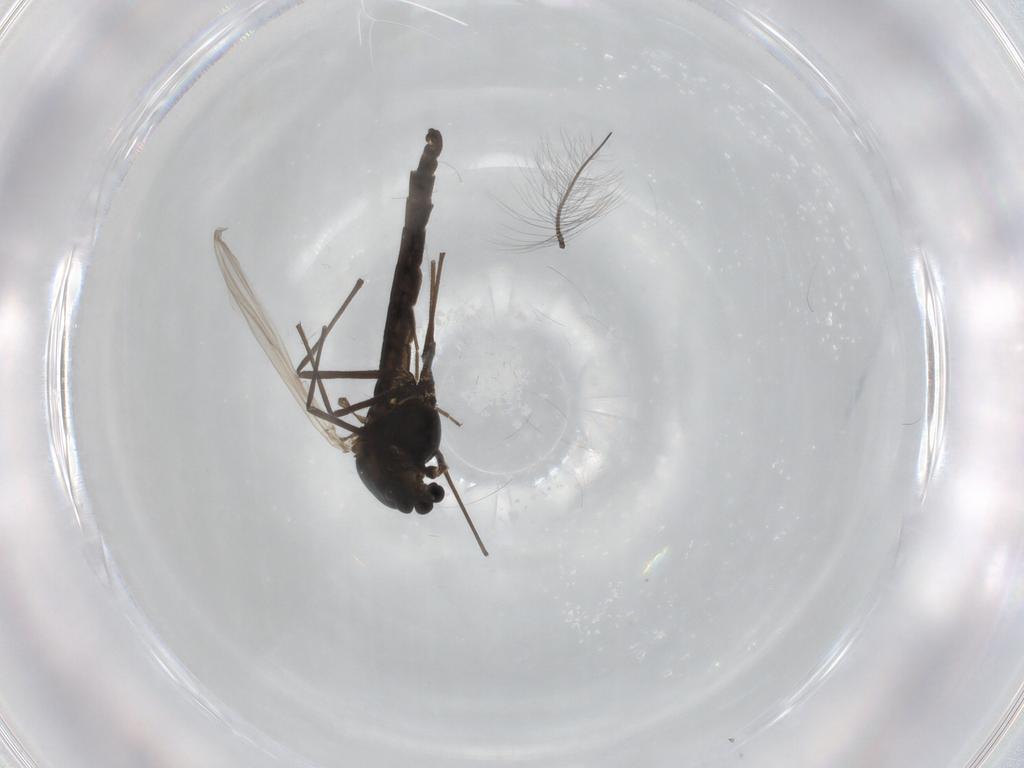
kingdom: Animalia
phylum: Arthropoda
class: Insecta
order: Diptera
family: Chironomidae
